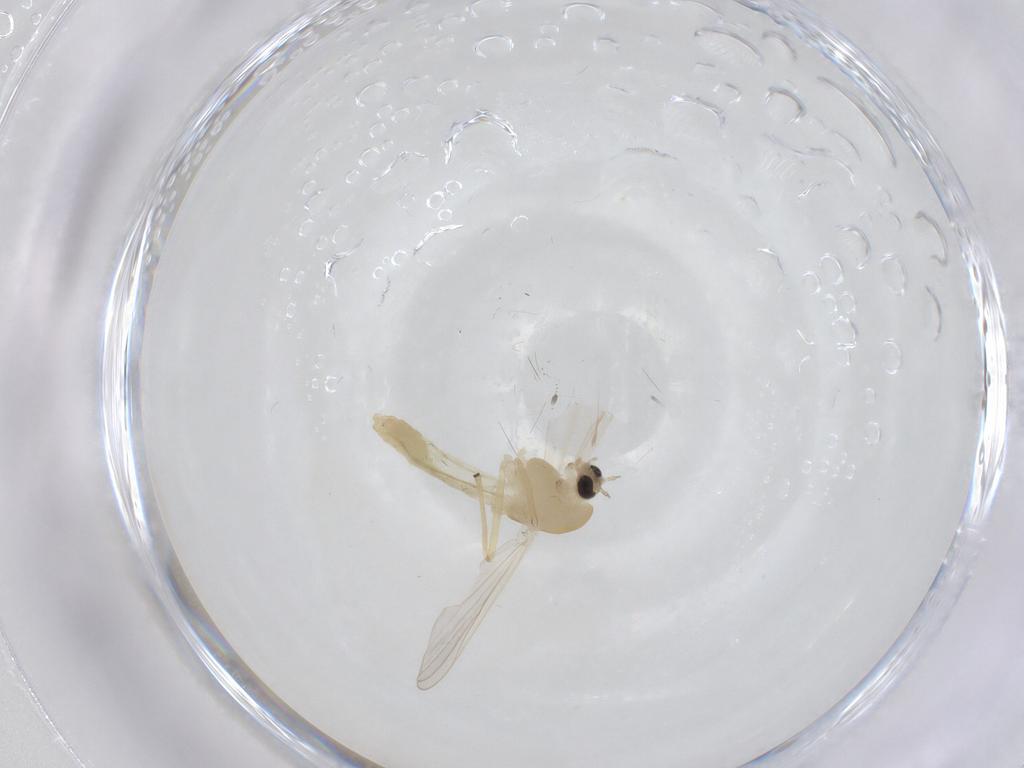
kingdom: Animalia
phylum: Arthropoda
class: Insecta
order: Diptera
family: Chironomidae
